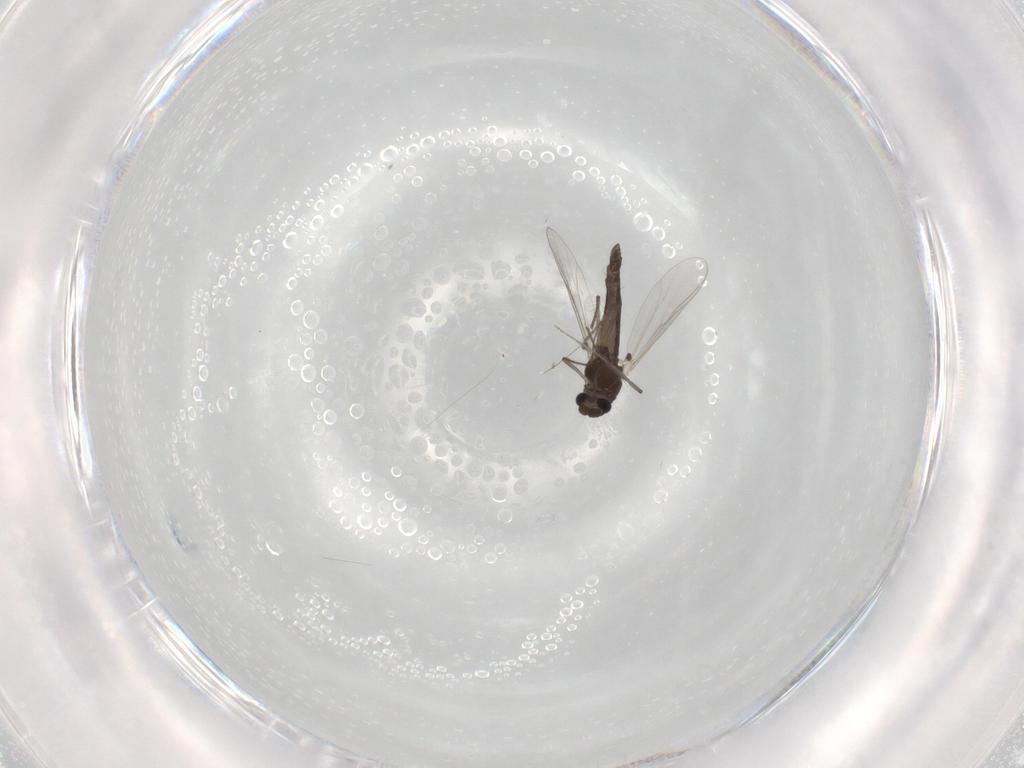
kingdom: Animalia
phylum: Arthropoda
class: Insecta
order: Diptera
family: Chironomidae
